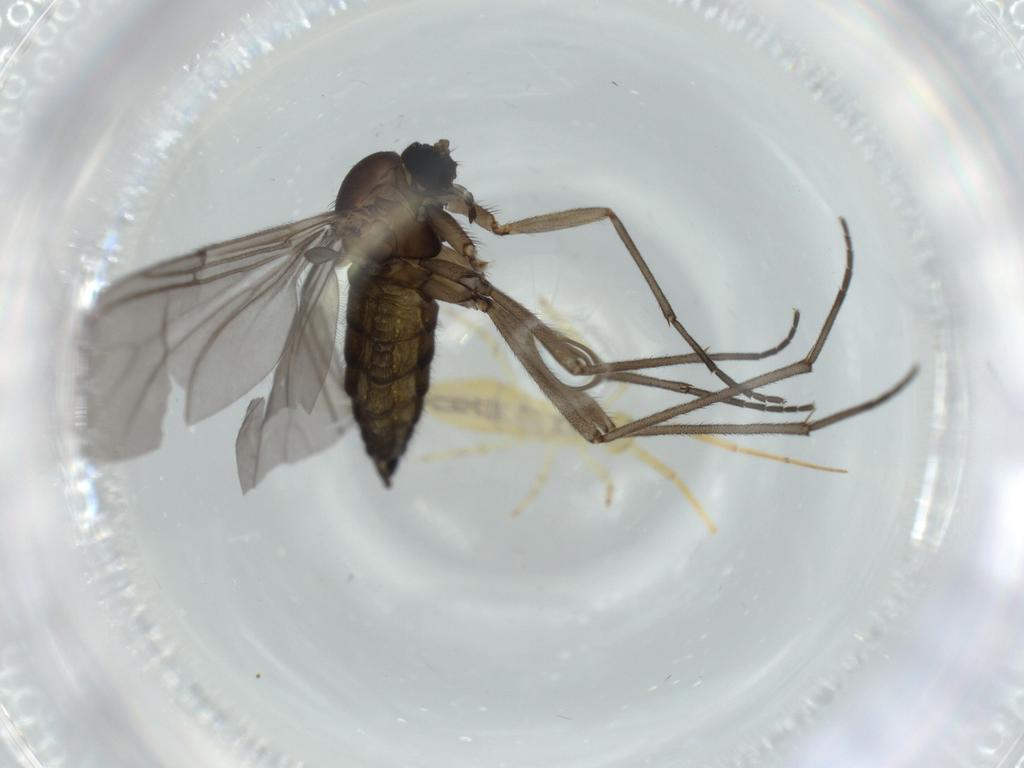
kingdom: Animalia
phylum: Arthropoda
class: Insecta
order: Diptera
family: Sciaridae
